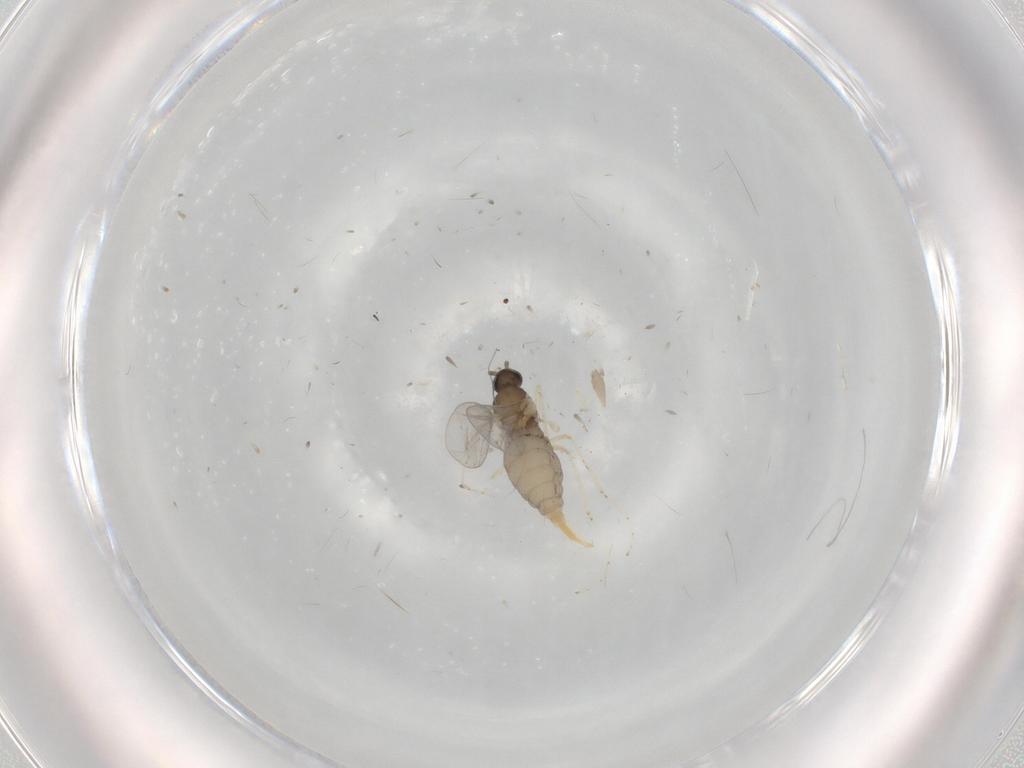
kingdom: Animalia
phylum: Arthropoda
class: Insecta
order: Diptera
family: Cecidomyiidae
